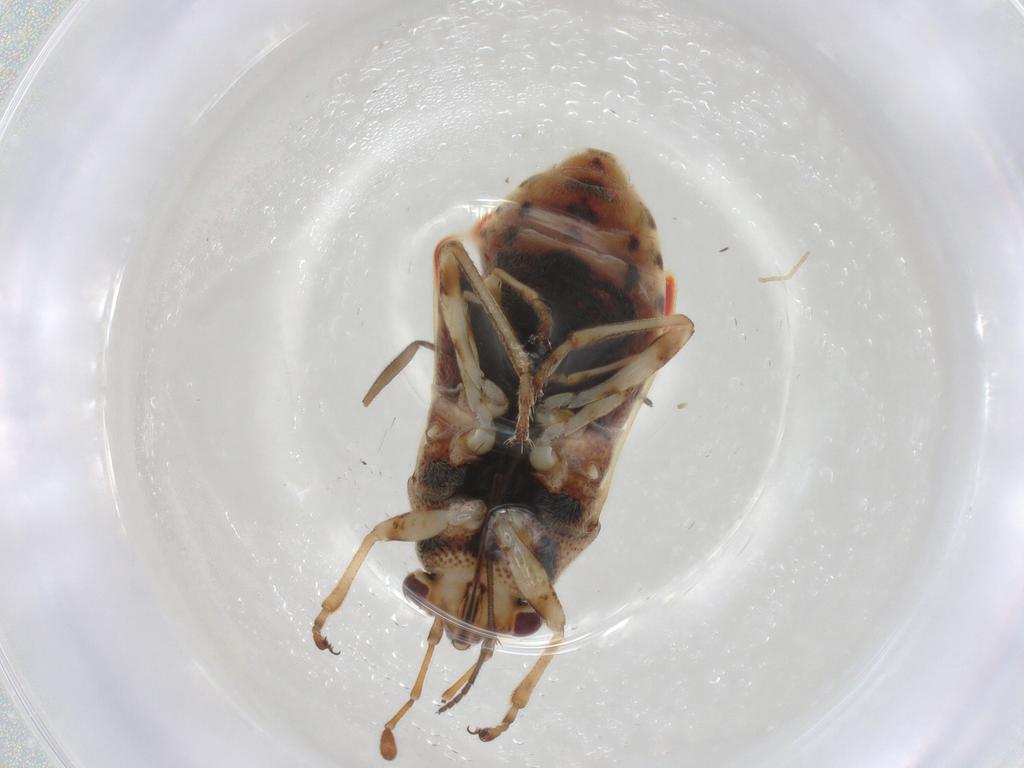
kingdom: Animalia
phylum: Arthropoda
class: Insecta
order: Hemiptera
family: Lygaeidae
